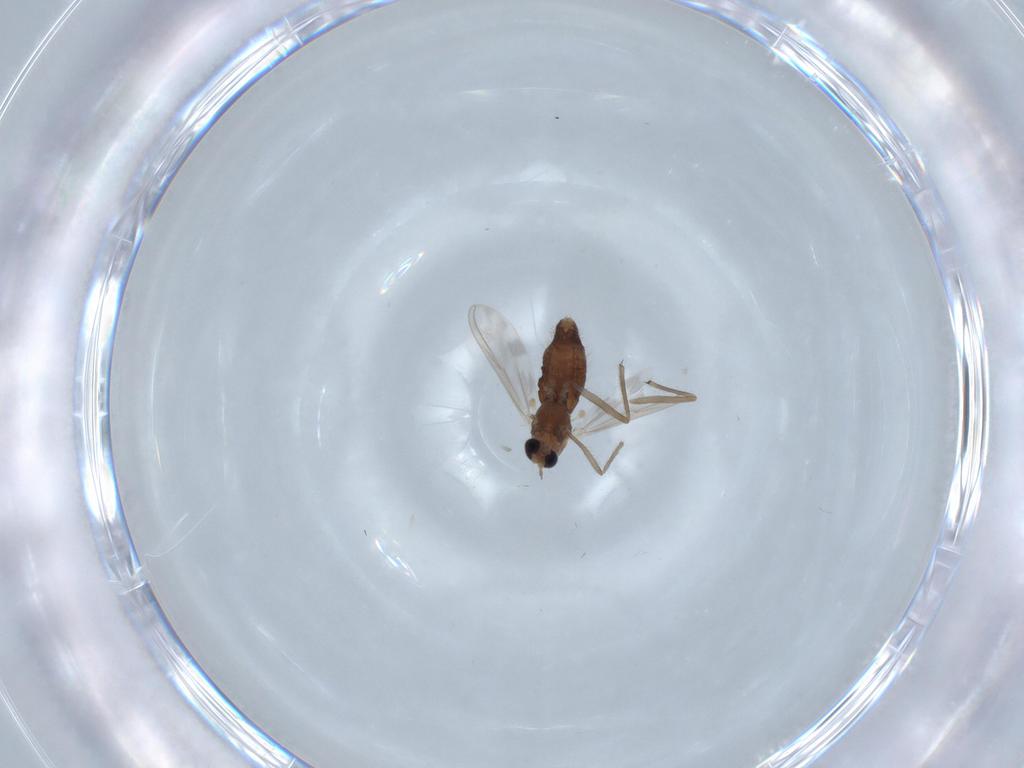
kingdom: Animalia
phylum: Arthropoda
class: Insecta
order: Diptera
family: Chironomidae
